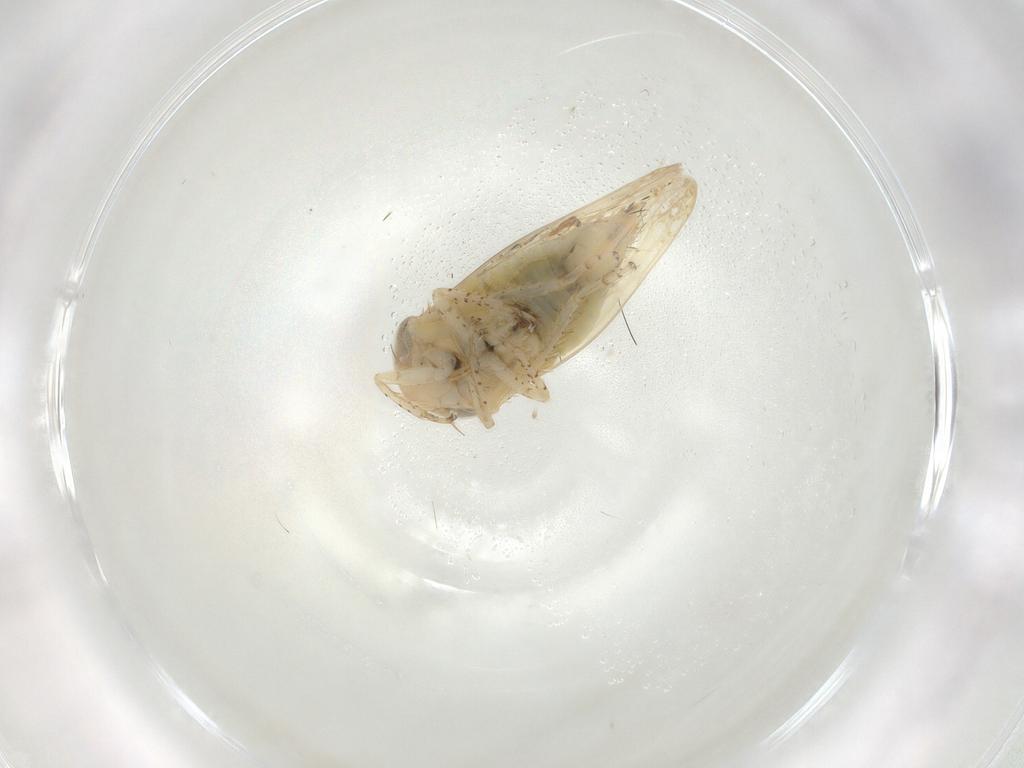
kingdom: Animalia
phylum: Arthropoda
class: Insecta
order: Hemiptera
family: Cicadellidae
